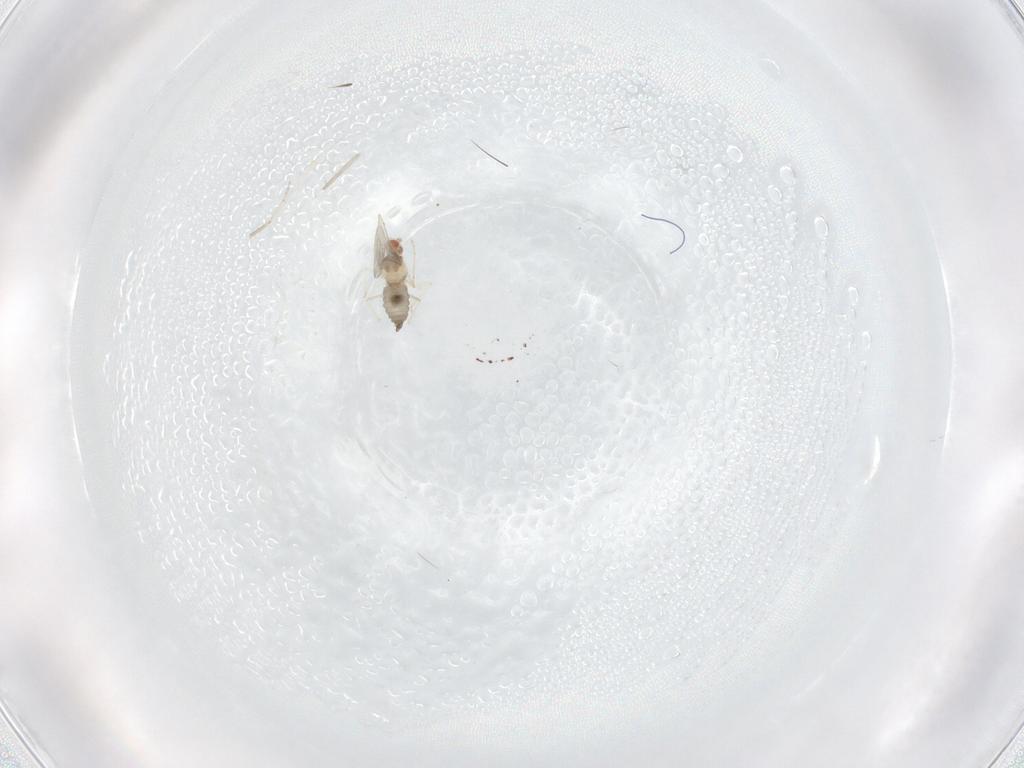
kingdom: Animalia
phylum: Arthropoda
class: Insecta
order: Diptera
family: Cecidomyiidae
